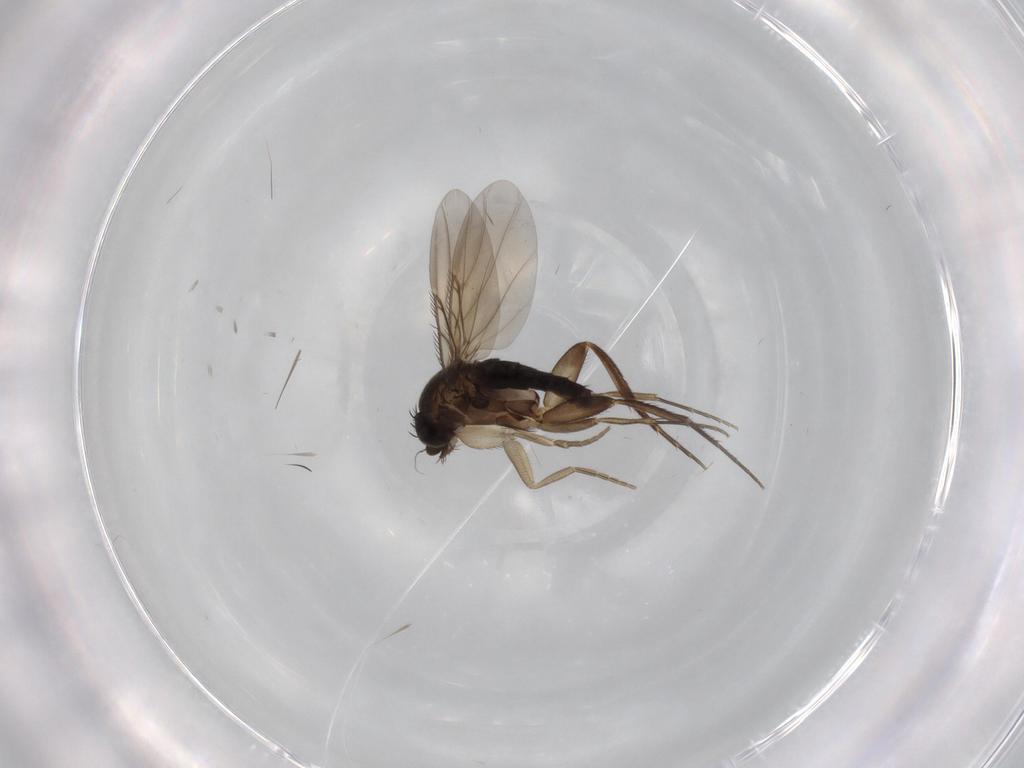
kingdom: Animalia
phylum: Arthropoda
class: Insecta
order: Diptera
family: Phoridae
